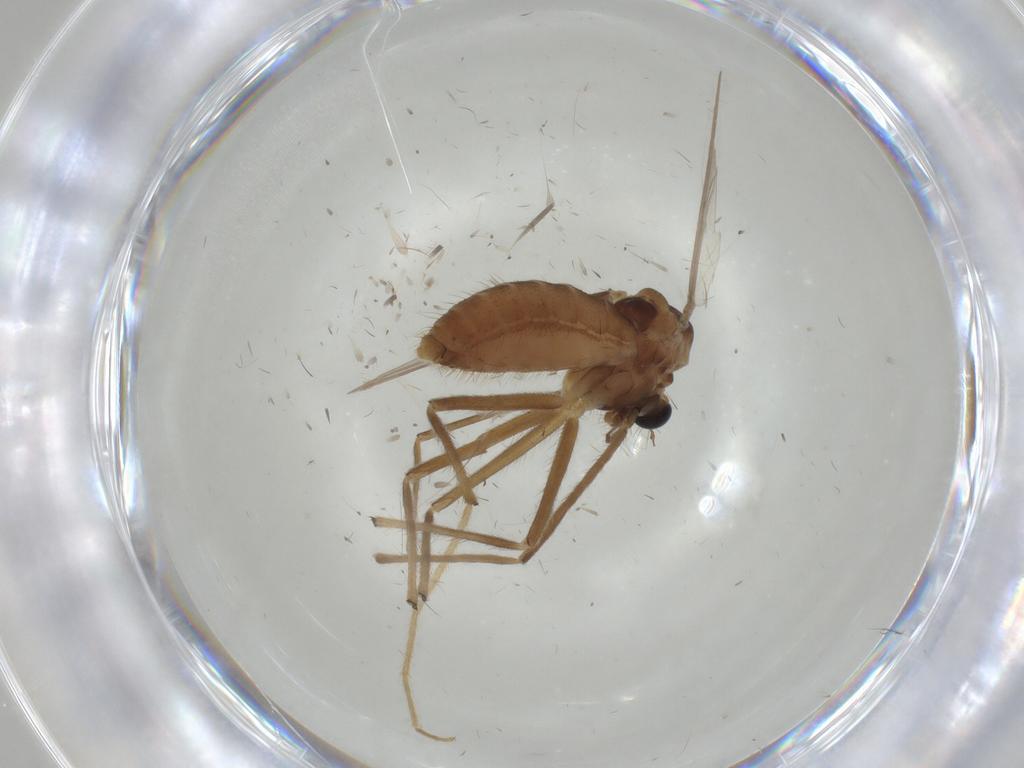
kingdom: Animalia
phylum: Arthropoda
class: Insecta
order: Diptera
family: Chironomidae
